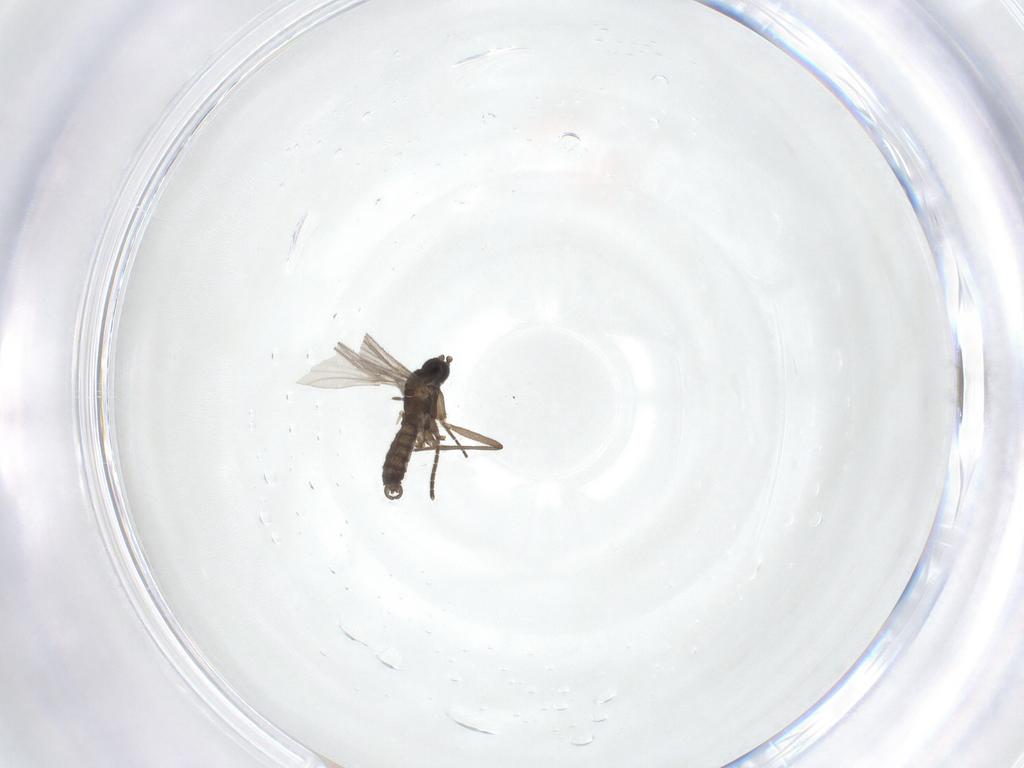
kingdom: Animalia
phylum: Arthropoda
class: Insecta
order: Diptera
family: Sciaridae
